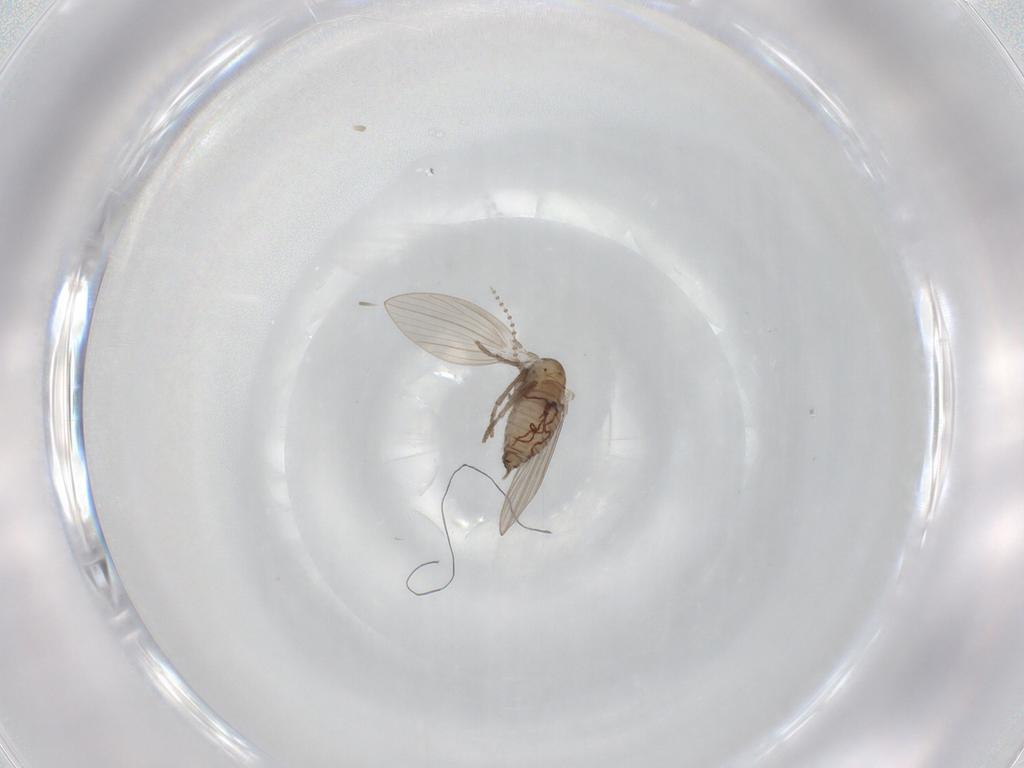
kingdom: Animalia
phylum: Arthropoda
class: Insecta
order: Diptera
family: Psychodidae
